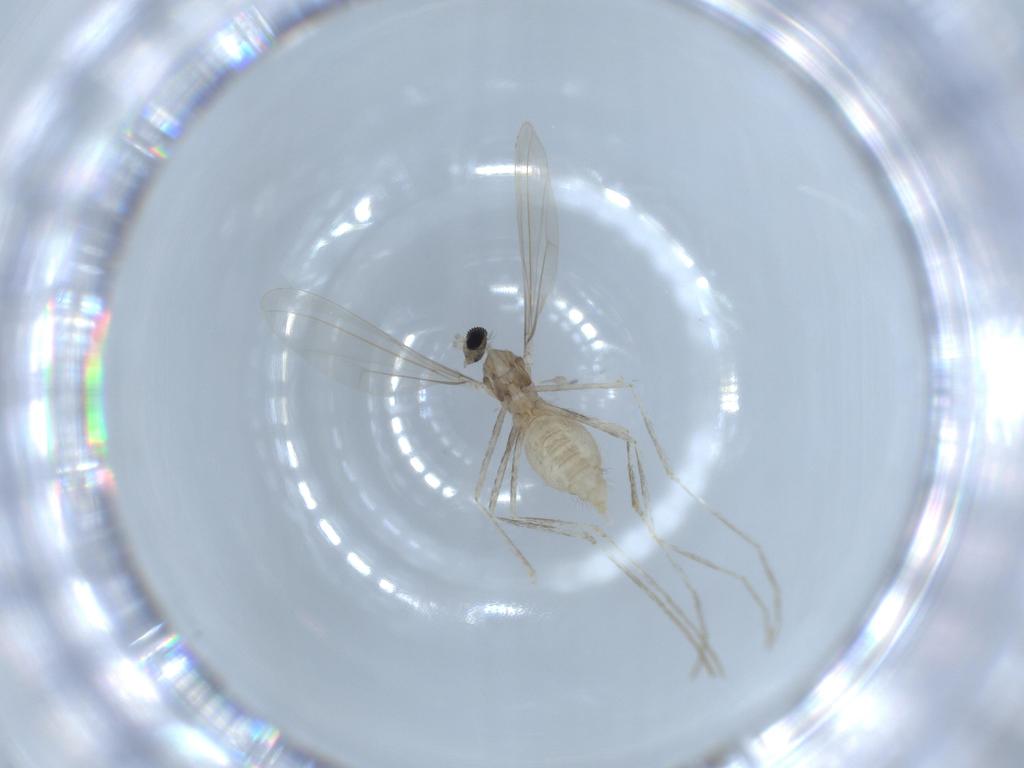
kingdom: Animalia
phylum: Arthropoda
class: Insecta
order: Diptera
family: Cecidomyiidae
